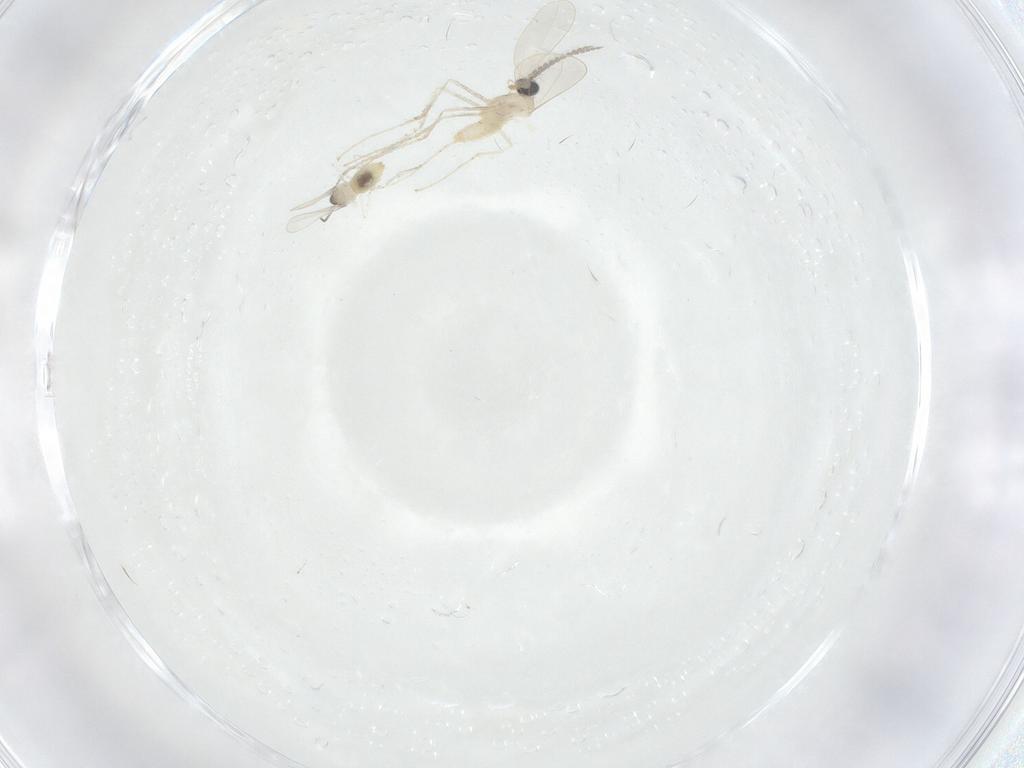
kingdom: Animalia
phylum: Arthropoda
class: Insecta
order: Diptera
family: Cecidomyiidae
